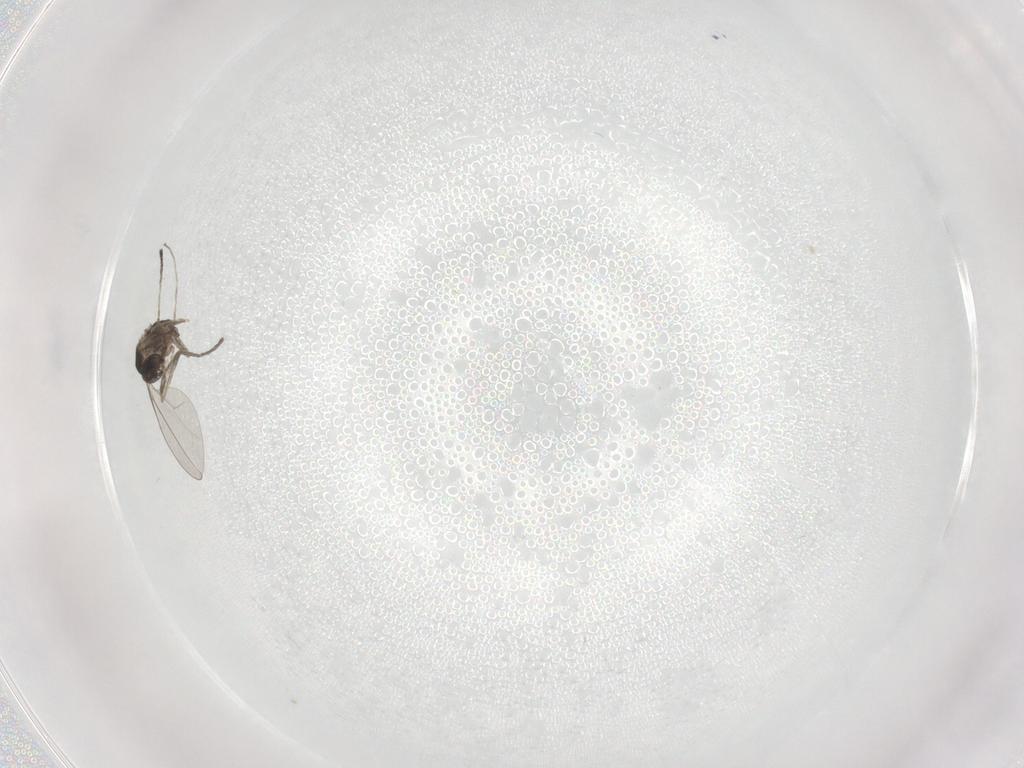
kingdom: Animalia
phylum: Arthropoda
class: Insecta
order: Diptera
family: Cecidomyiidae
